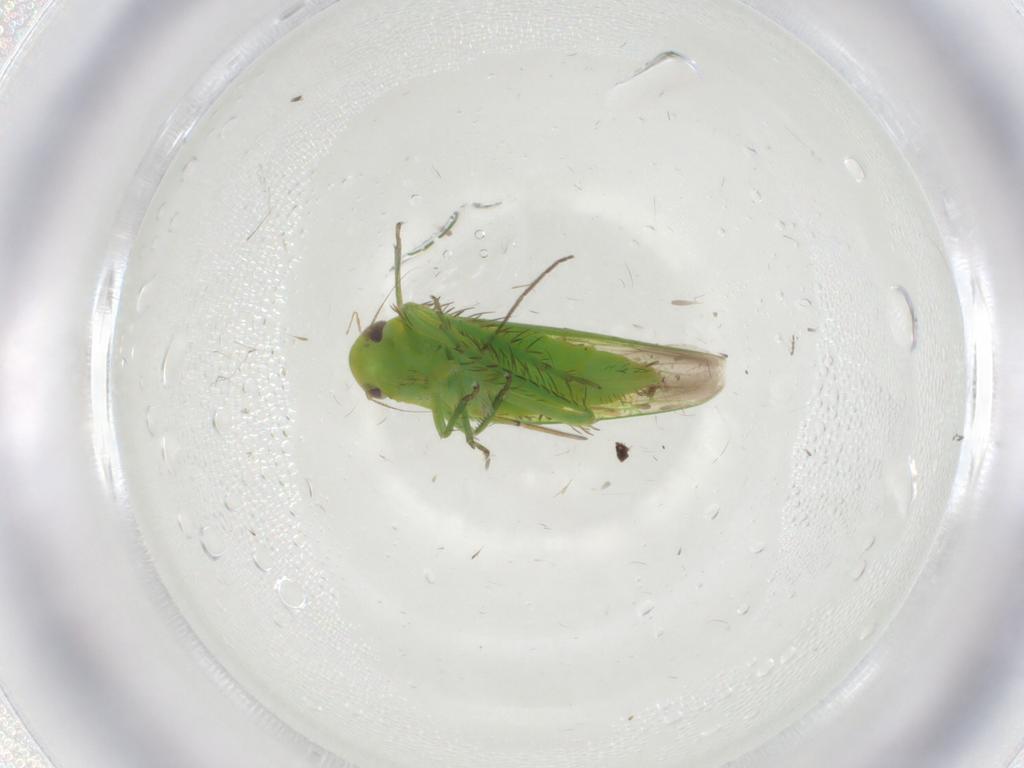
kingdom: Animalia
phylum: Arthropoda
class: Insecta
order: Hemiptera
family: Cicadellidae
